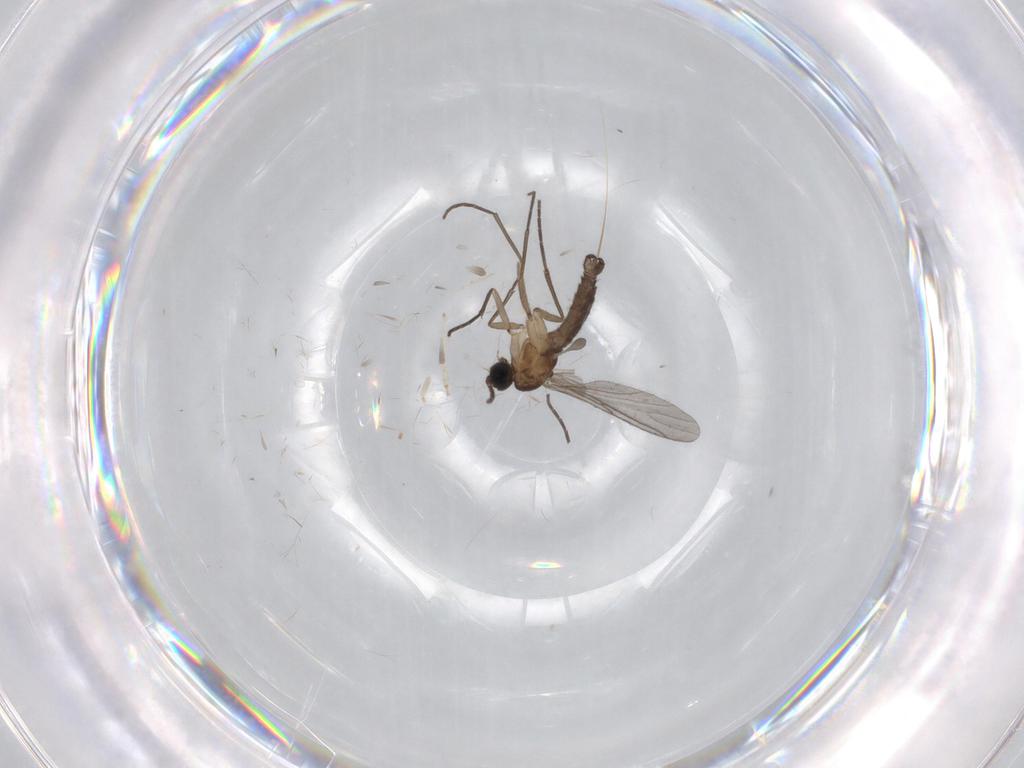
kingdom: Animalia
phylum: Arthropoda
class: Insecta
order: Diptera
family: Sciaridae
